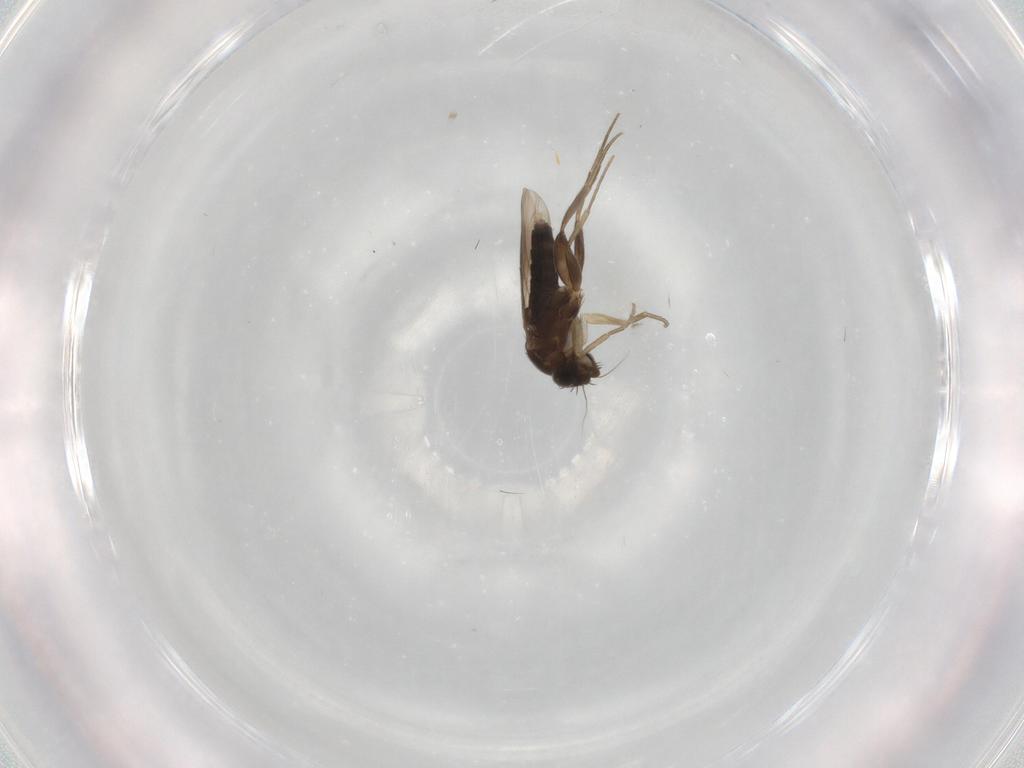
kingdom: Animalia
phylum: Arthropoda
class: Insecta
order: Diptera
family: Phoridae
